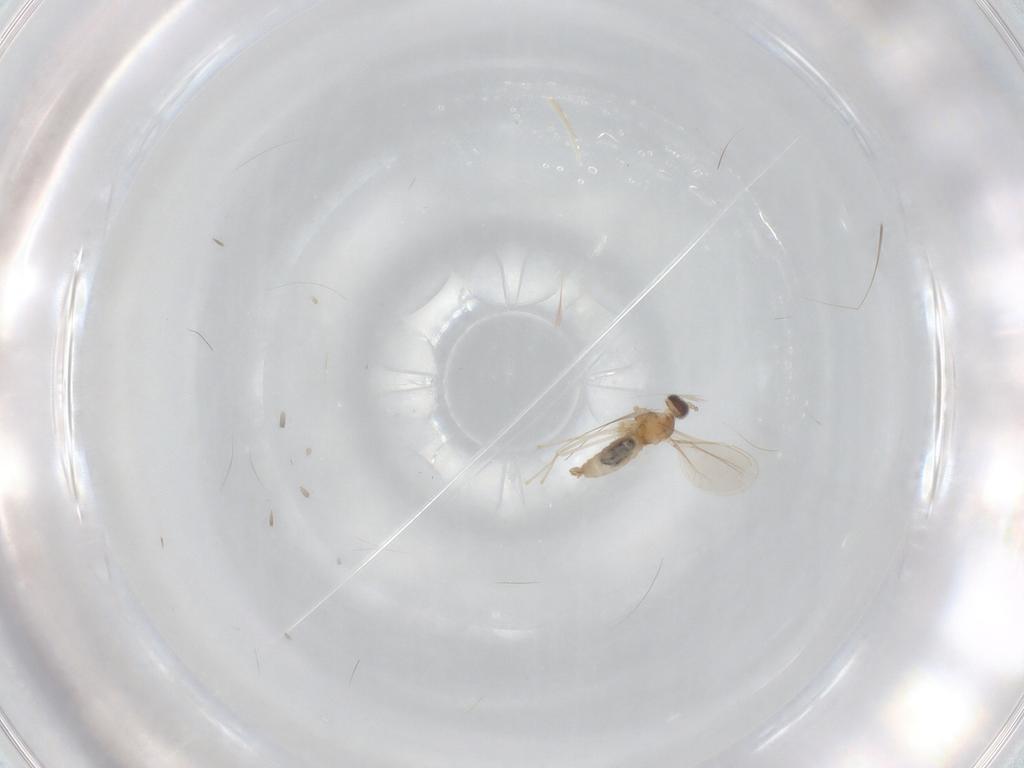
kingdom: Animalia
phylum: Arthropoda
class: Insecta
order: Diptera
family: Cecidomyiidae
